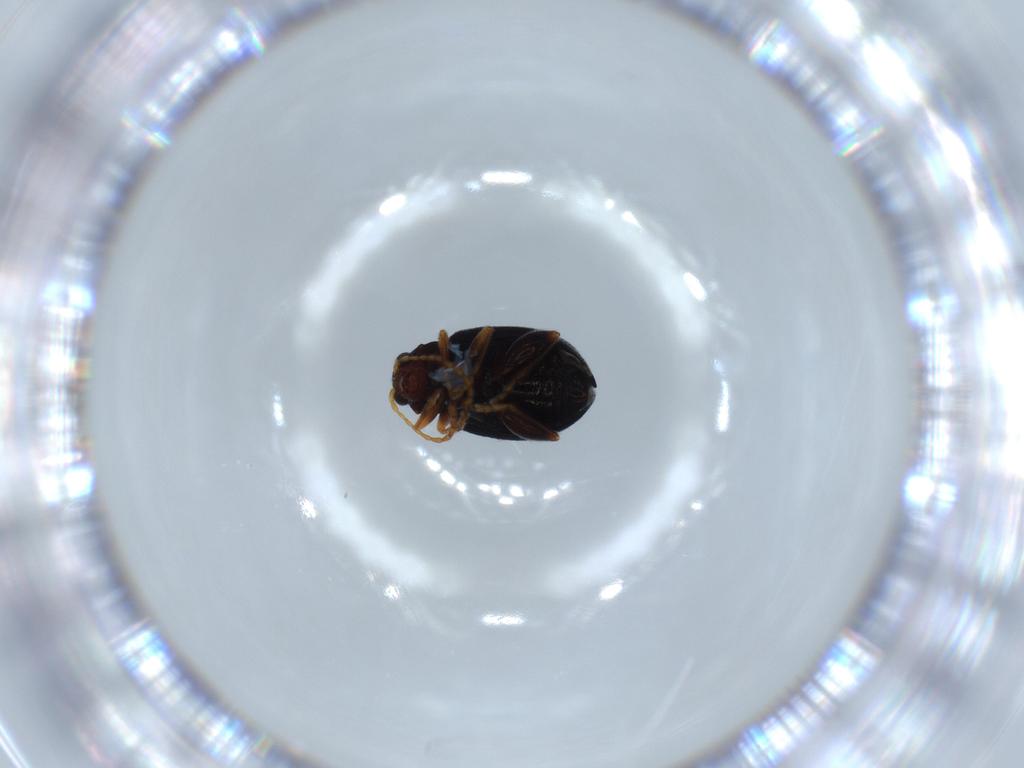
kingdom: Animalia
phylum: Arthropoda
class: Insecta
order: Coleoptera
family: Chrysomelidae
